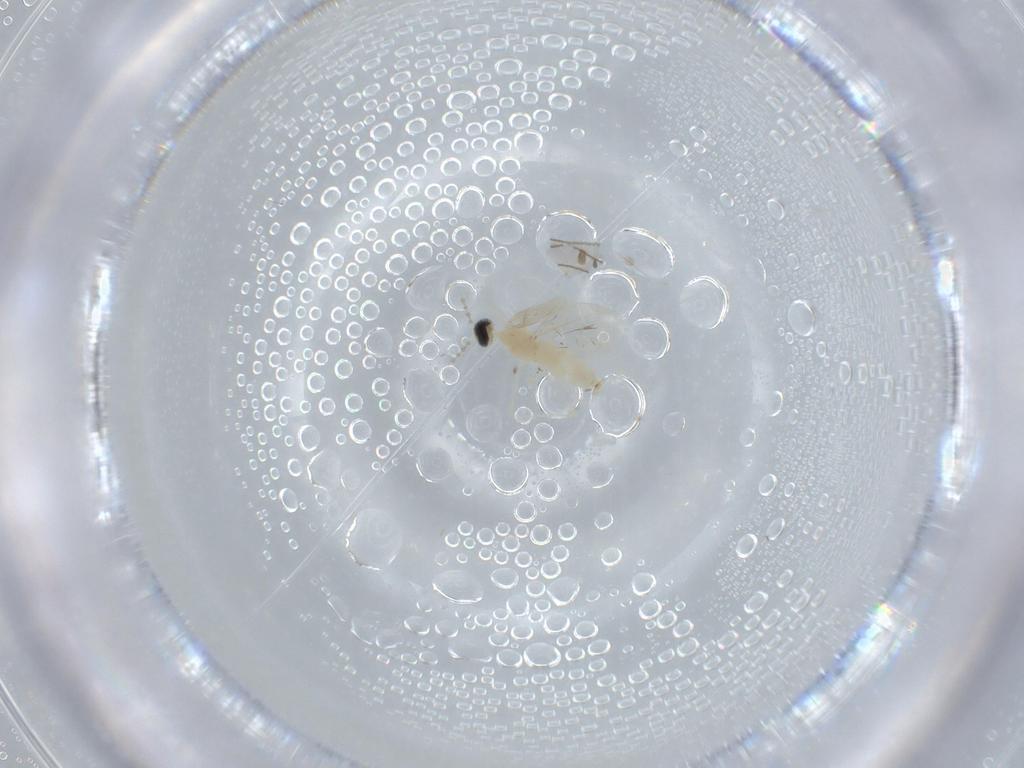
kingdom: Animalia
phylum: Arthropoda
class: Insecta
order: Diptera
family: Cecidomyiidae
